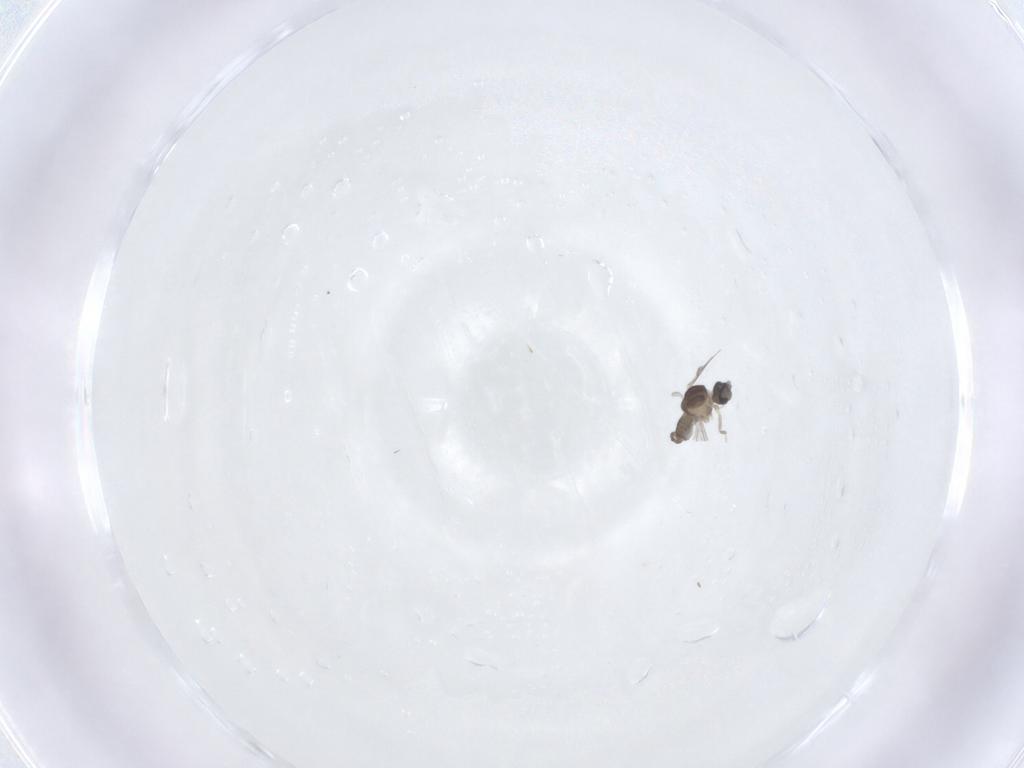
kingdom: Animalia
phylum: Arthropoda
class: Insecta
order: Diptera
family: Cecidomyiidae
